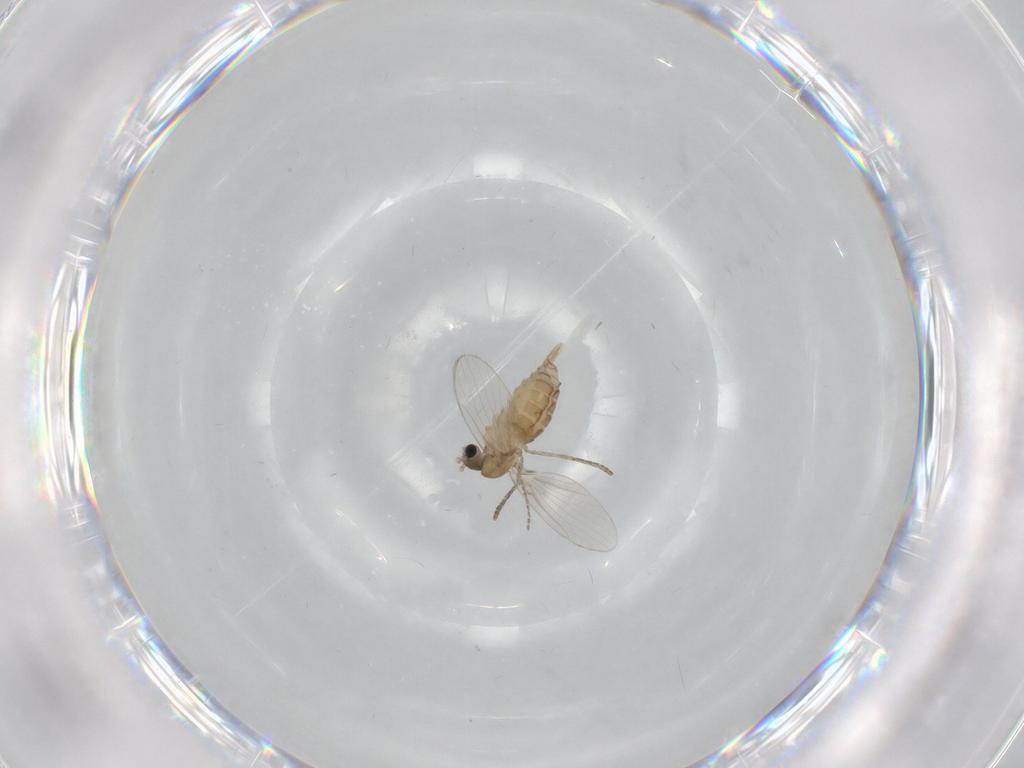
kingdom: Animalia
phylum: Arthropoda
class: Insecta
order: Diptera
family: Psychodidae
